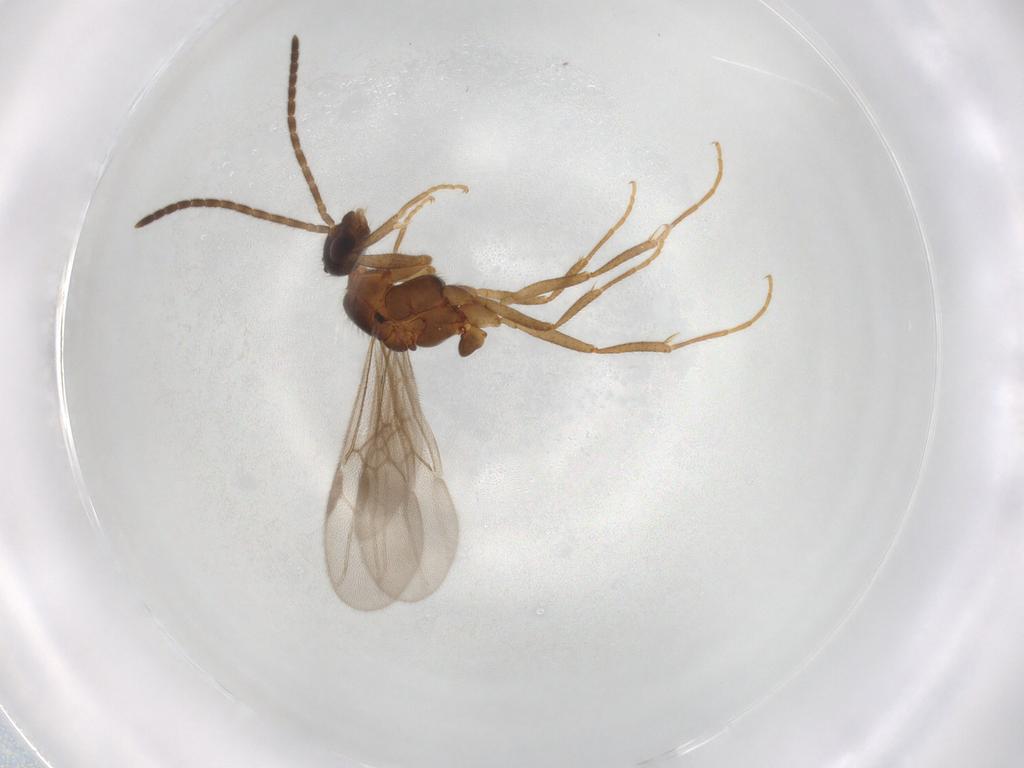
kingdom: Animalia
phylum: Arthropoda
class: Insecta
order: Hymenoptera
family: Formicidae
